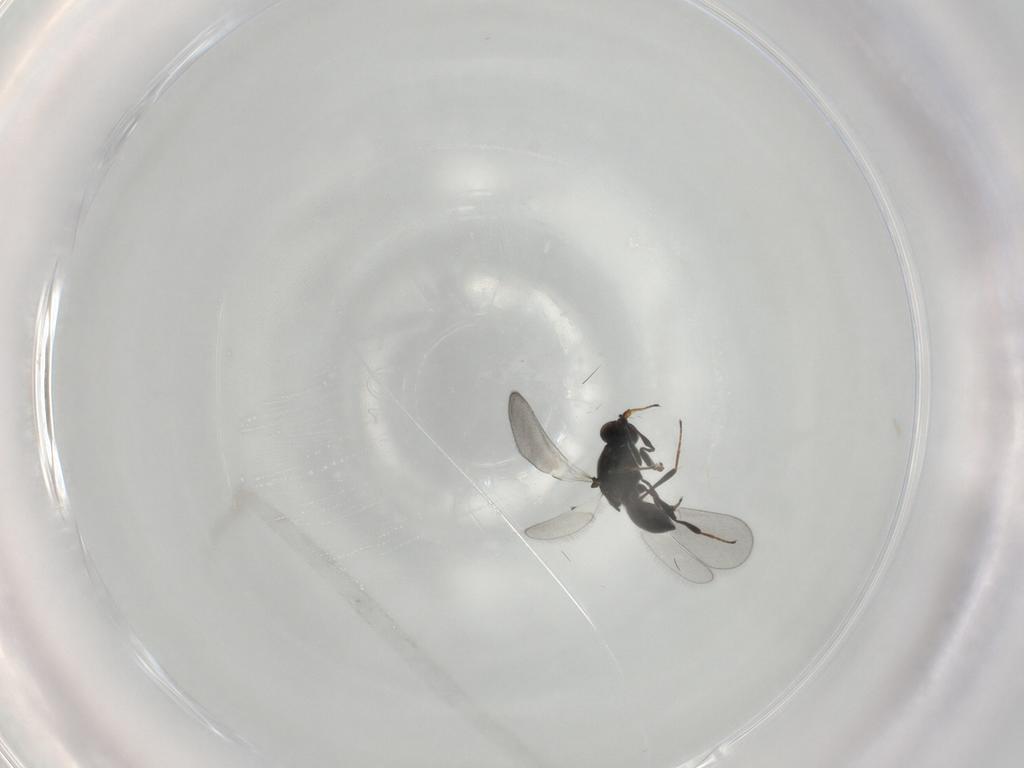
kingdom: Animalia
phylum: Arthropoda
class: Insecta
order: Hymenoptera
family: Platygastridae
